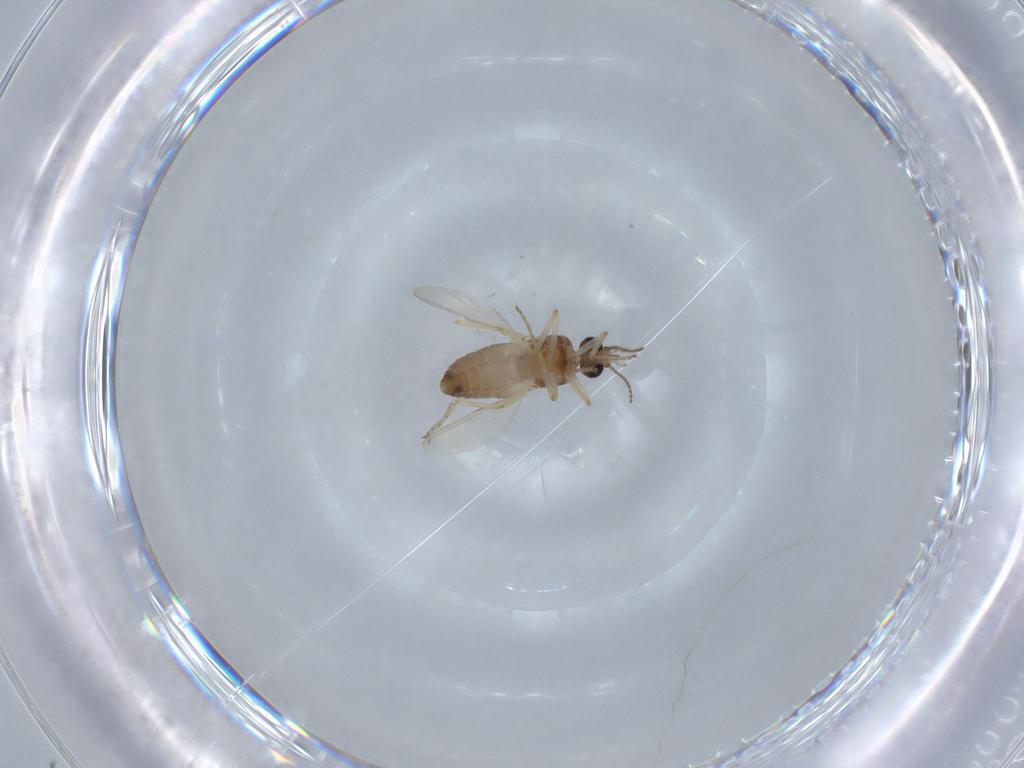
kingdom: Animalia
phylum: Arthropoda
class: Insecta
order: Diptera
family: Ceratopogonidae
